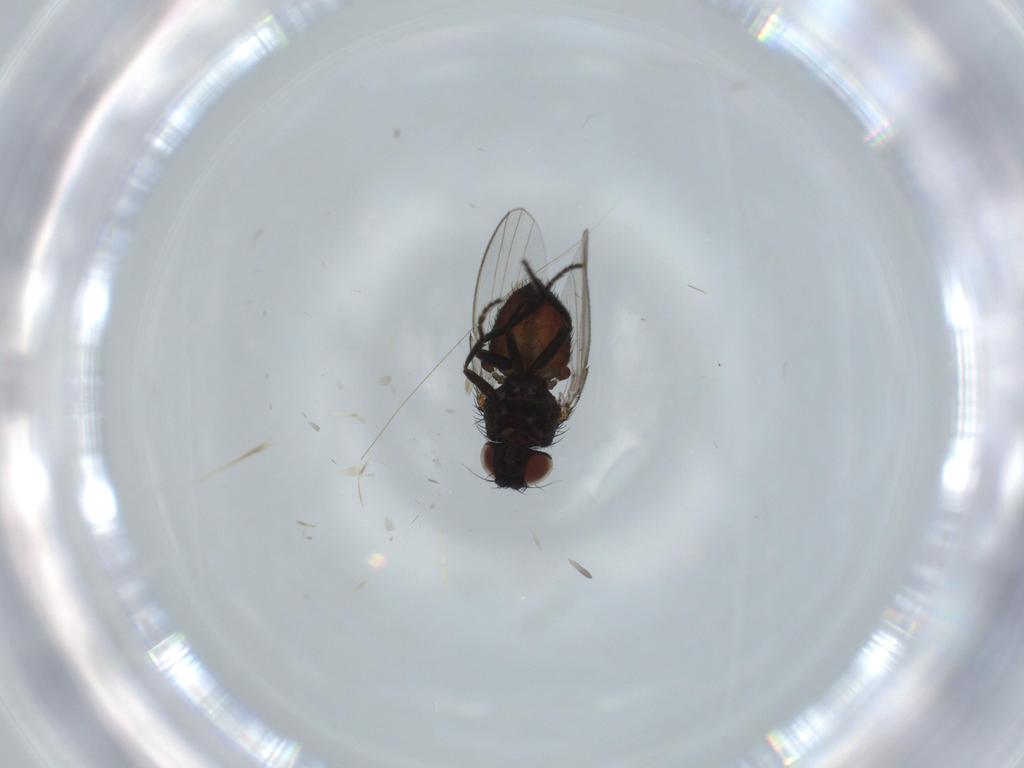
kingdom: Animalia
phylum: Arthropoda
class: Insecta
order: Diptera
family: Milichiidae
